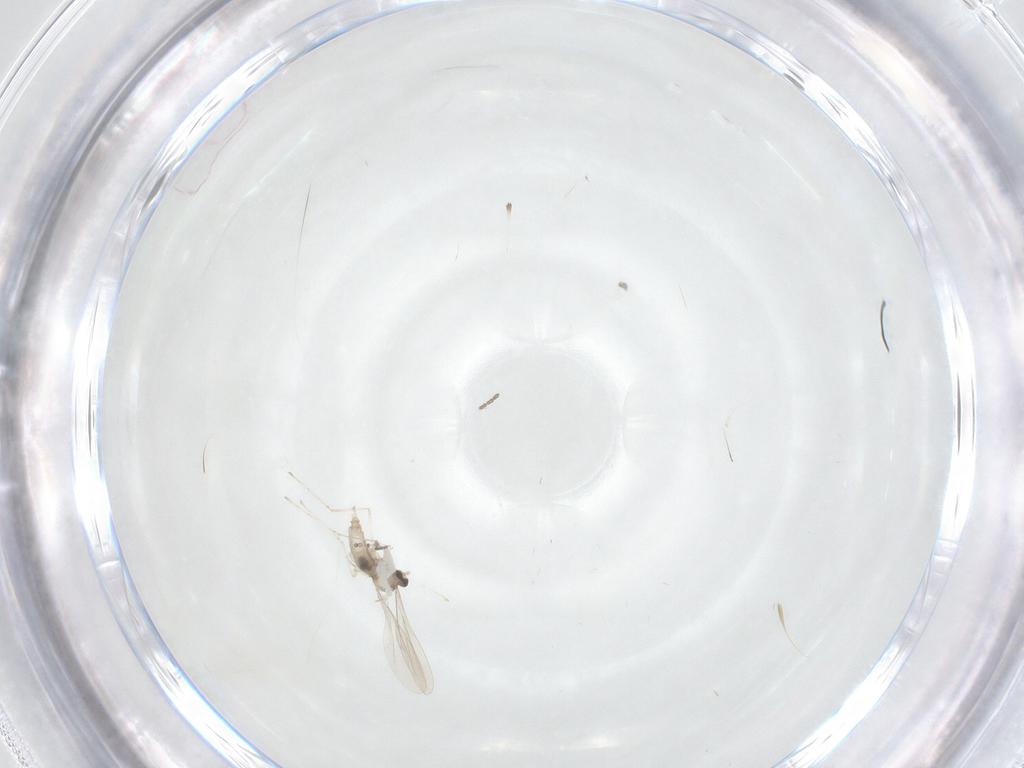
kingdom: Animalia
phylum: Arthropoda
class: Insecta
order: Diptera
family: Cecidomyiidae
